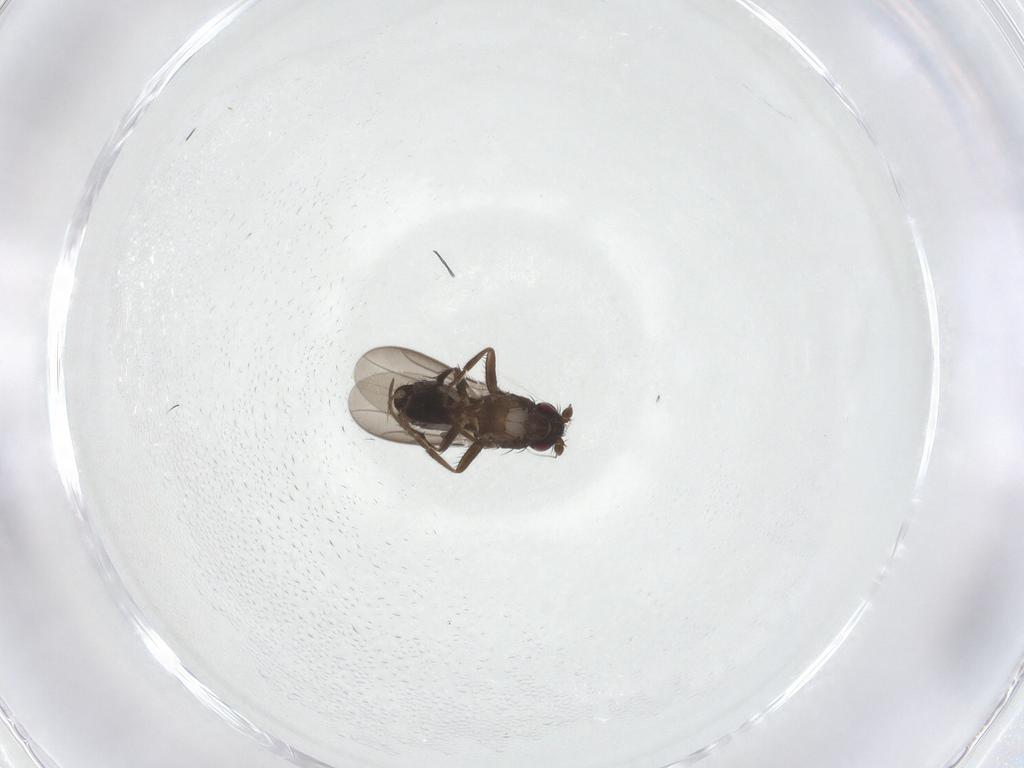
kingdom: Animalia
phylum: Arthropoda
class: Insecta
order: Diptera
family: Sphaeroceridae
